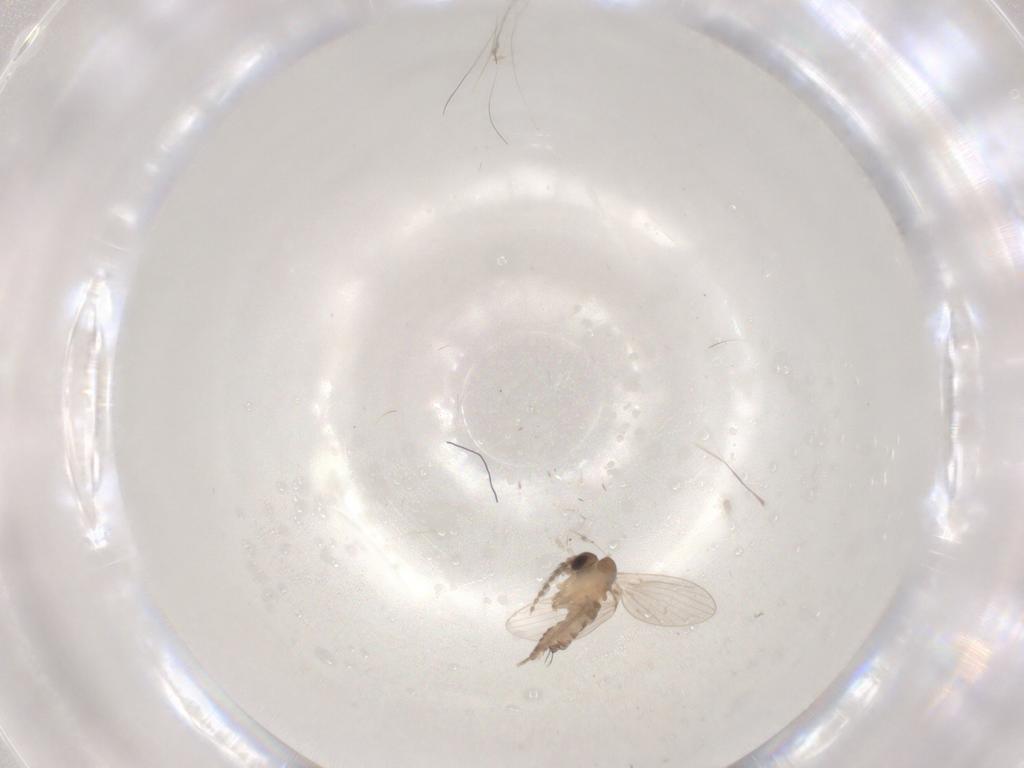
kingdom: Animalia
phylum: Arthropoda
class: Insecta
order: Diptera
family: Psychodidae
